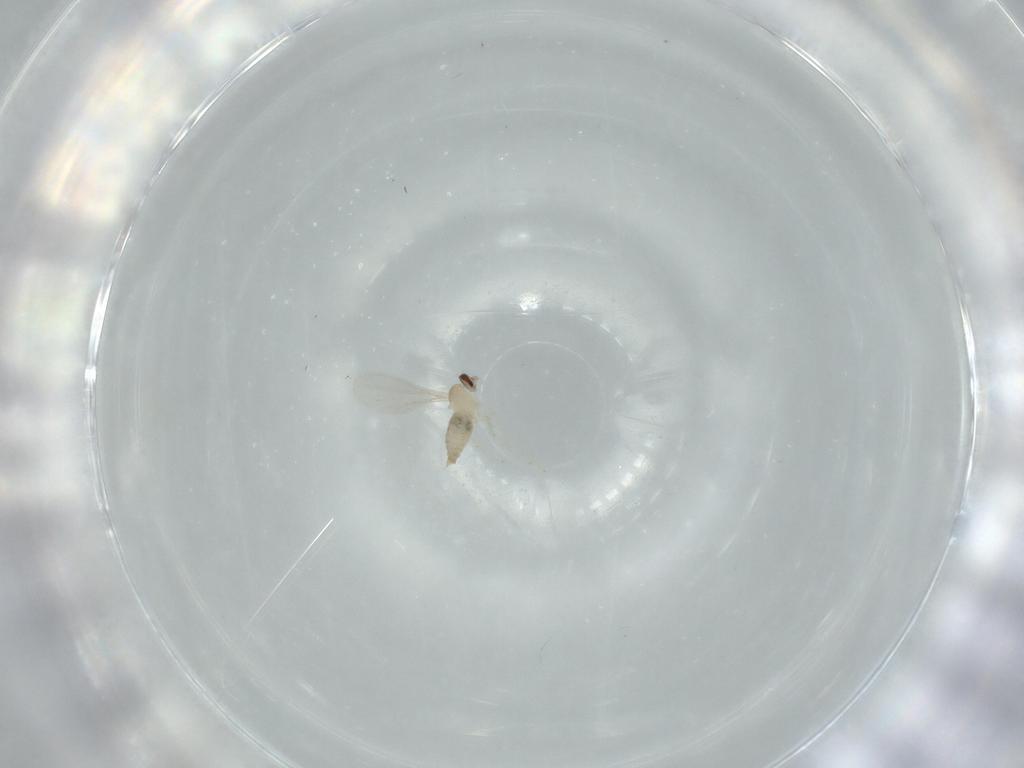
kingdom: Animalia
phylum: Arthropoda
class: Insecta
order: Diptera
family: Cecidomyiidae
